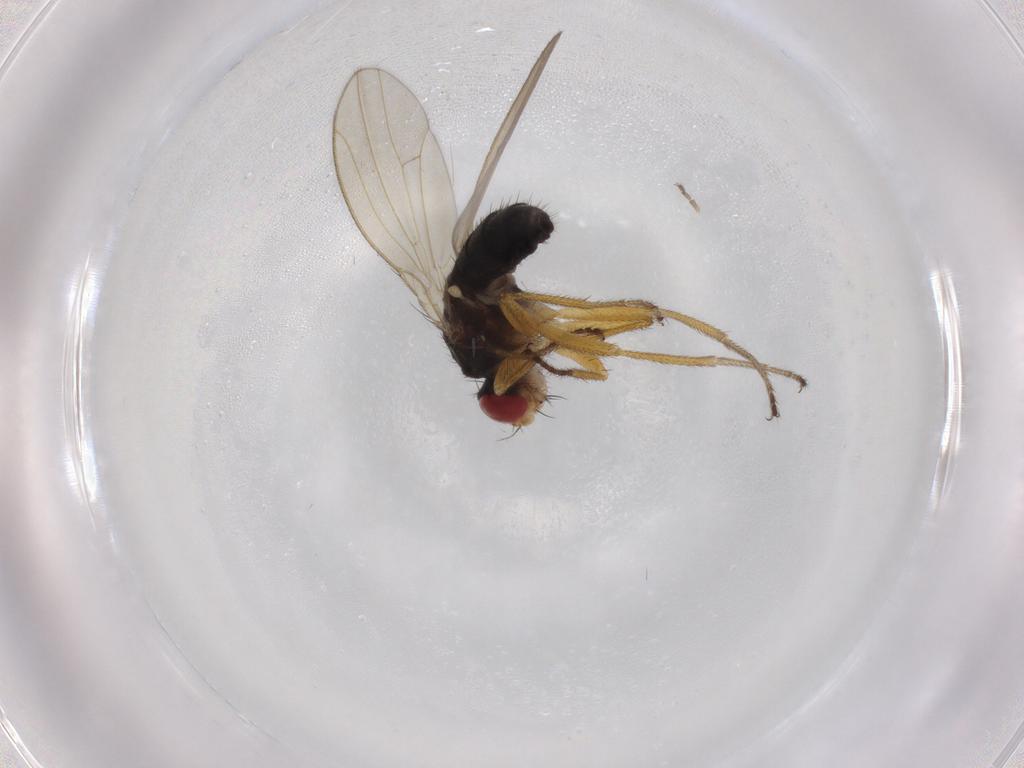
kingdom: Animalia
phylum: Arthropoda
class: Insecta
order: Diptera
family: Drosophilidae
